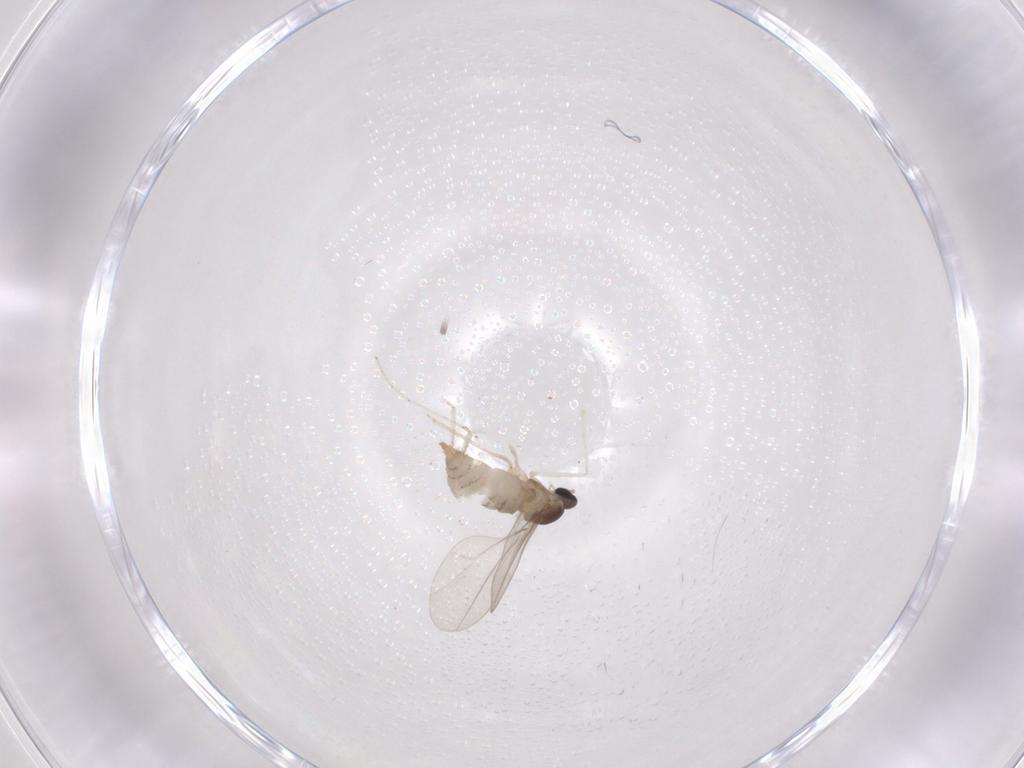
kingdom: Animalia
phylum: Arthropoda
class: Insecta
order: Diptera
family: Cecidomyiidae
